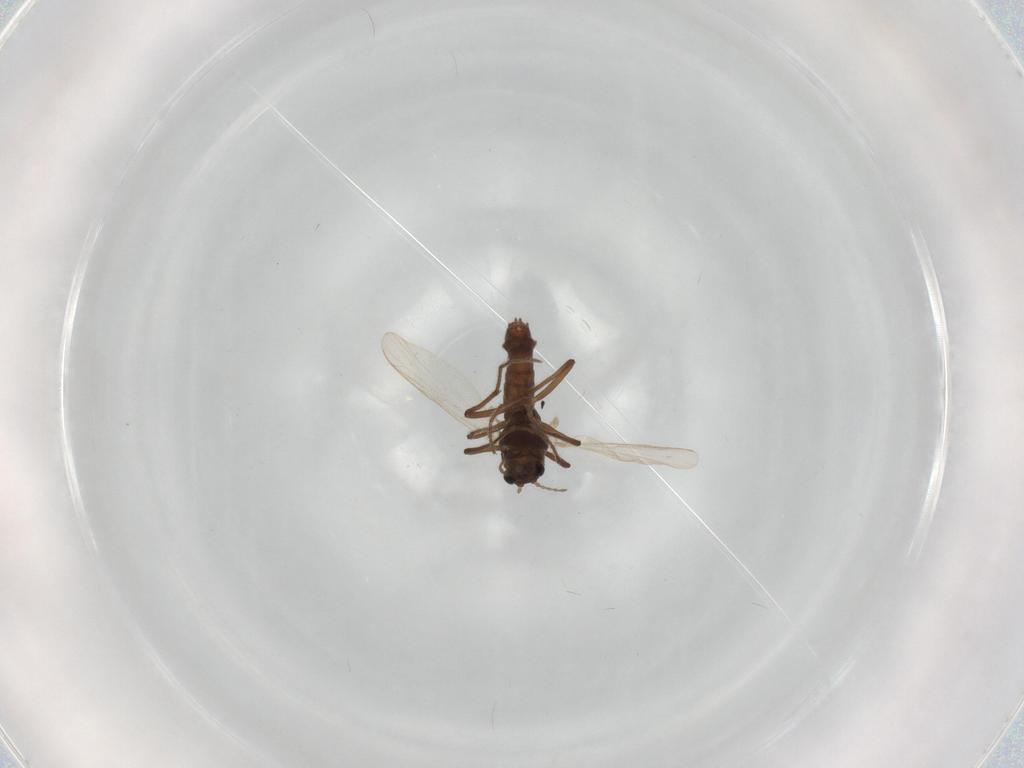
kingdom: Animalia
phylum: Arthropoda
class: Insecta
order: Diptera
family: Chironomidae
